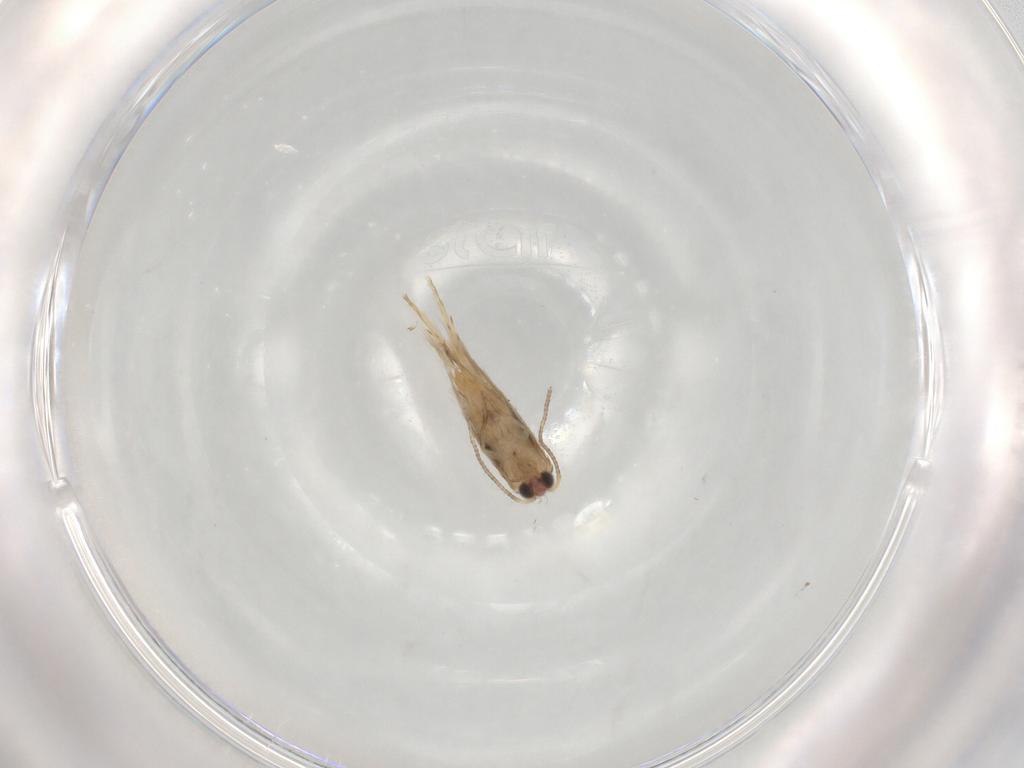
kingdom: Animalia
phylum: Arthropoda
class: Insecta
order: Lepidoptera
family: Nepticulidae
